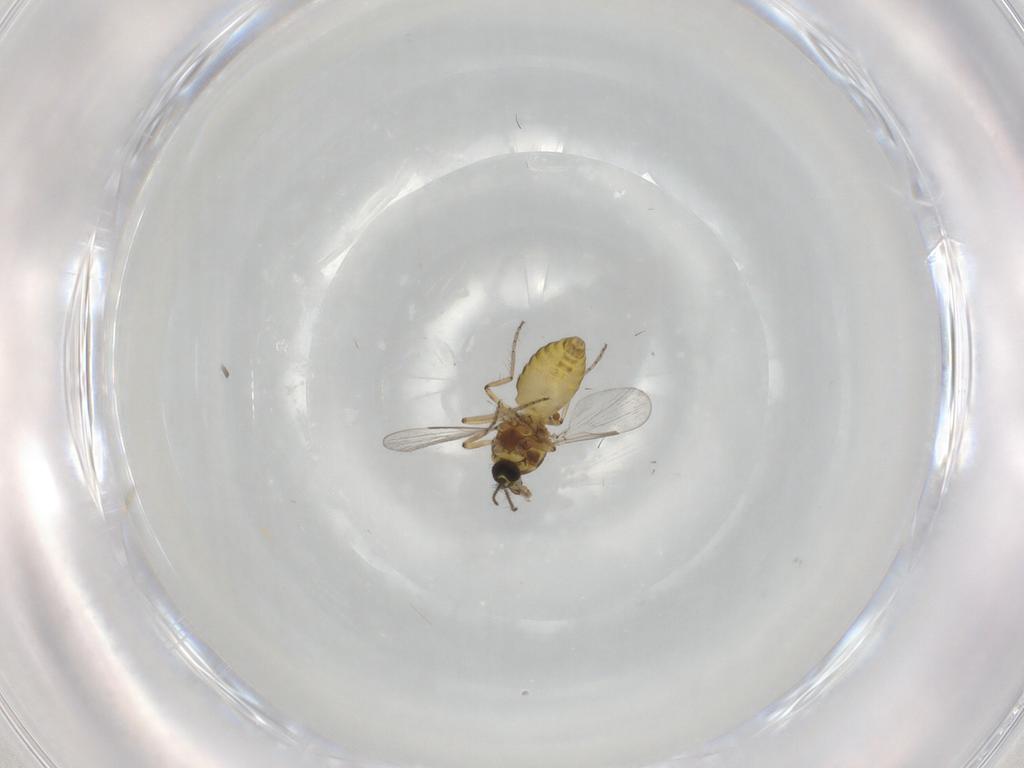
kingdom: Animalia
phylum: Arthropoda
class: Insecta
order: Diptera
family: Ceratopogonidae
